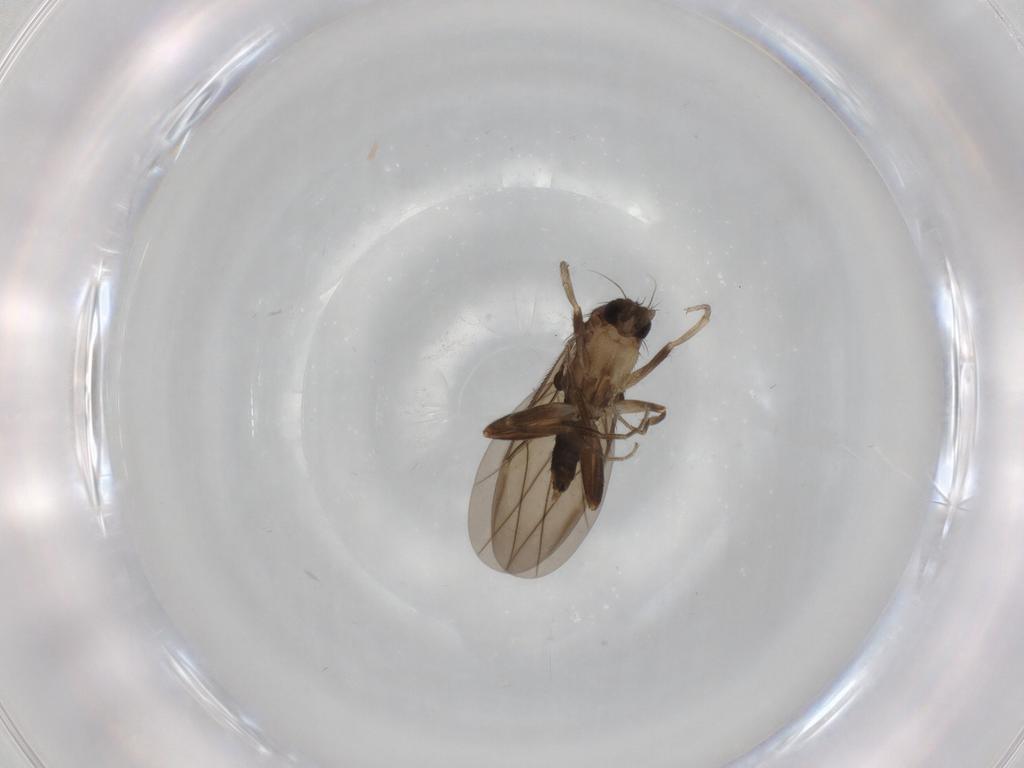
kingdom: Animalia
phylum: Arthropoda
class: Insecta
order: Diptera
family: Phoridae
